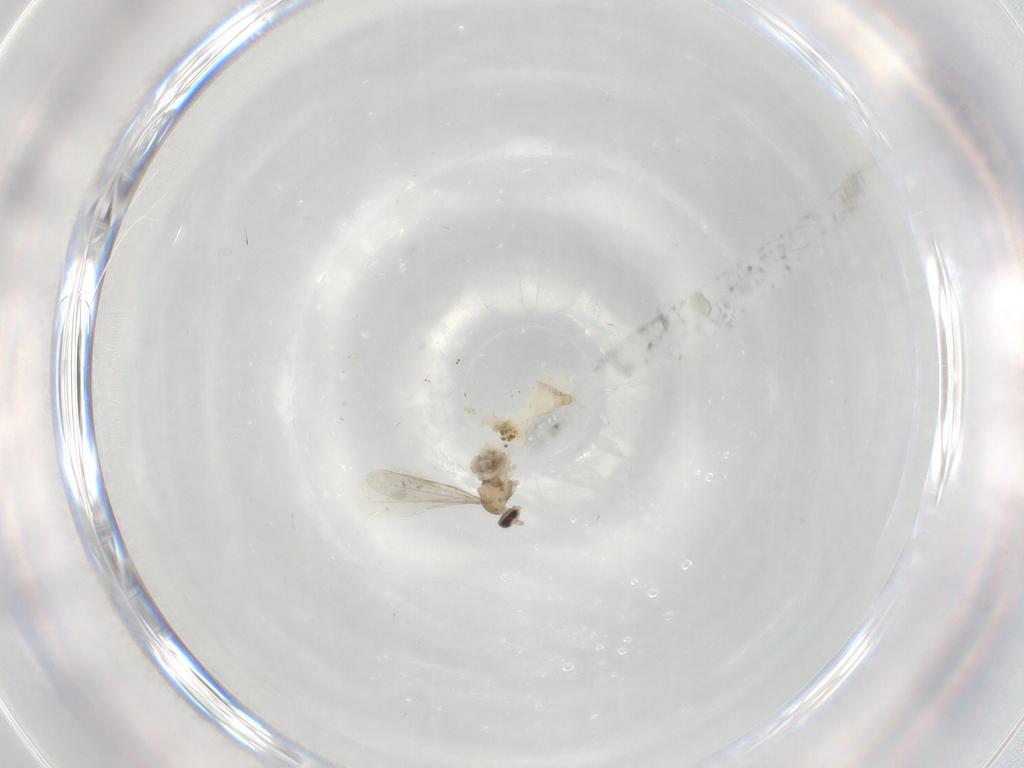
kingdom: Animalia
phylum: Arthropoda
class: Insecta
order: Diptera
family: Cecidomyiidae
